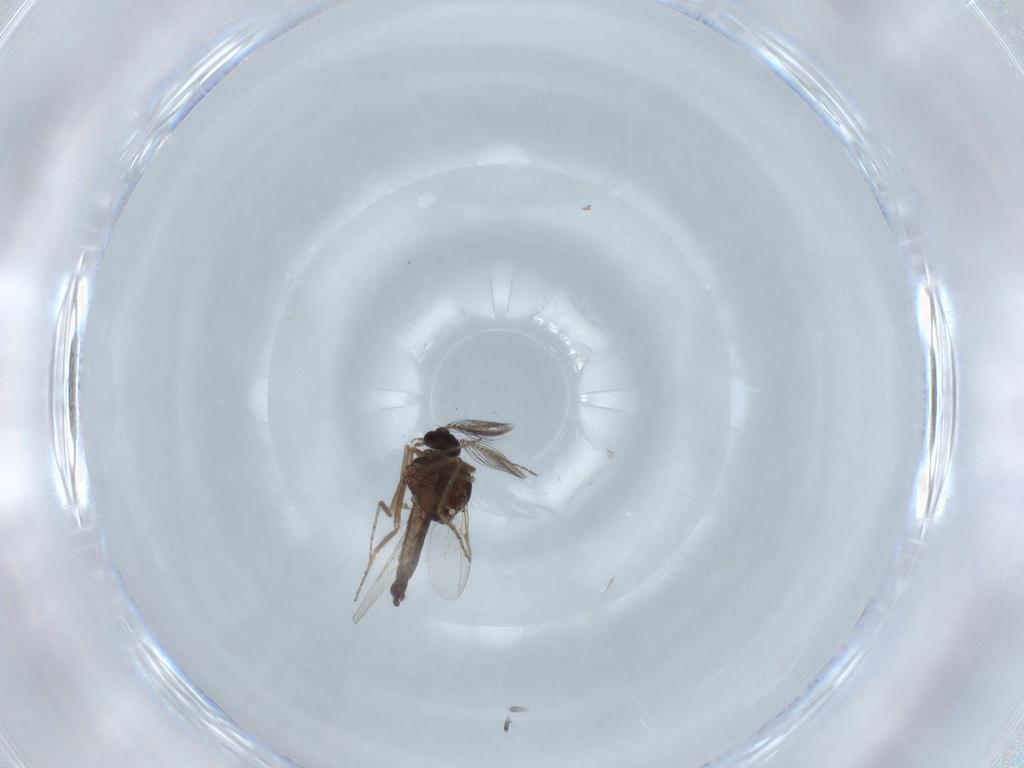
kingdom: Animalia
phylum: Arthropoda
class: Insecta
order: Diptera
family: Ceratopogonidae
